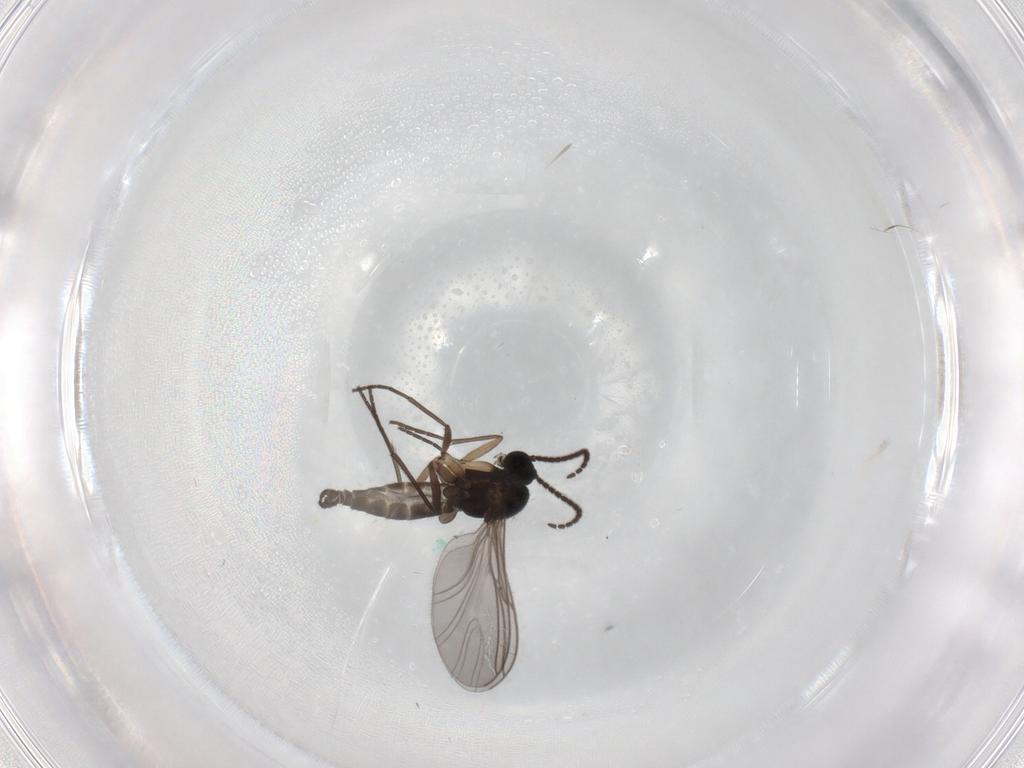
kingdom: Animalia
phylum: Arthropoda
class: Insecta
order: Diptera
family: Sciaridae
